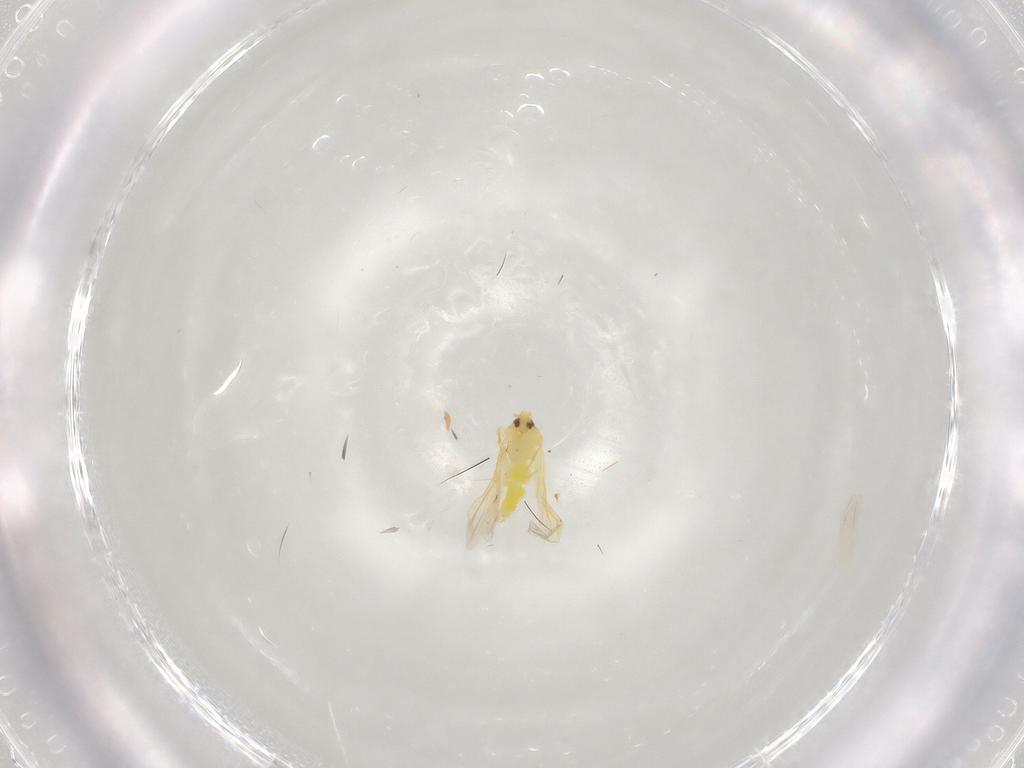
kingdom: Animalia
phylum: Arthropoda
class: Insecta
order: Hemiptera
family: Aleyrodidae
